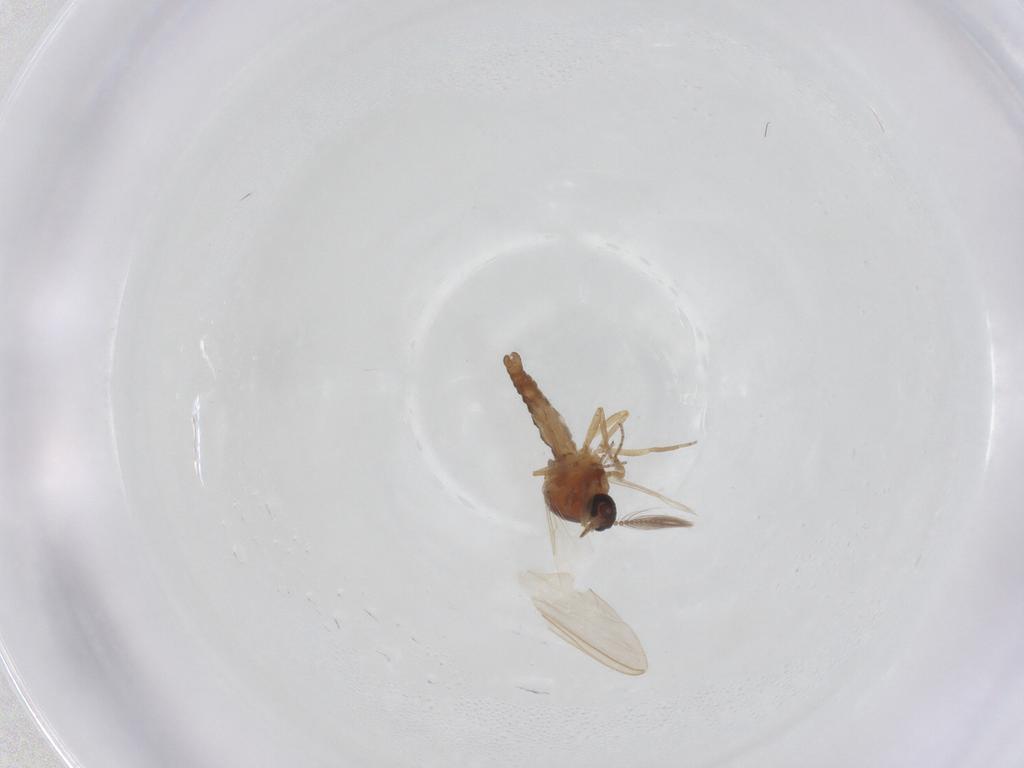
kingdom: Animalia
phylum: Arthropoda
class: Insecta
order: Diptera
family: Ceratopogonidae
